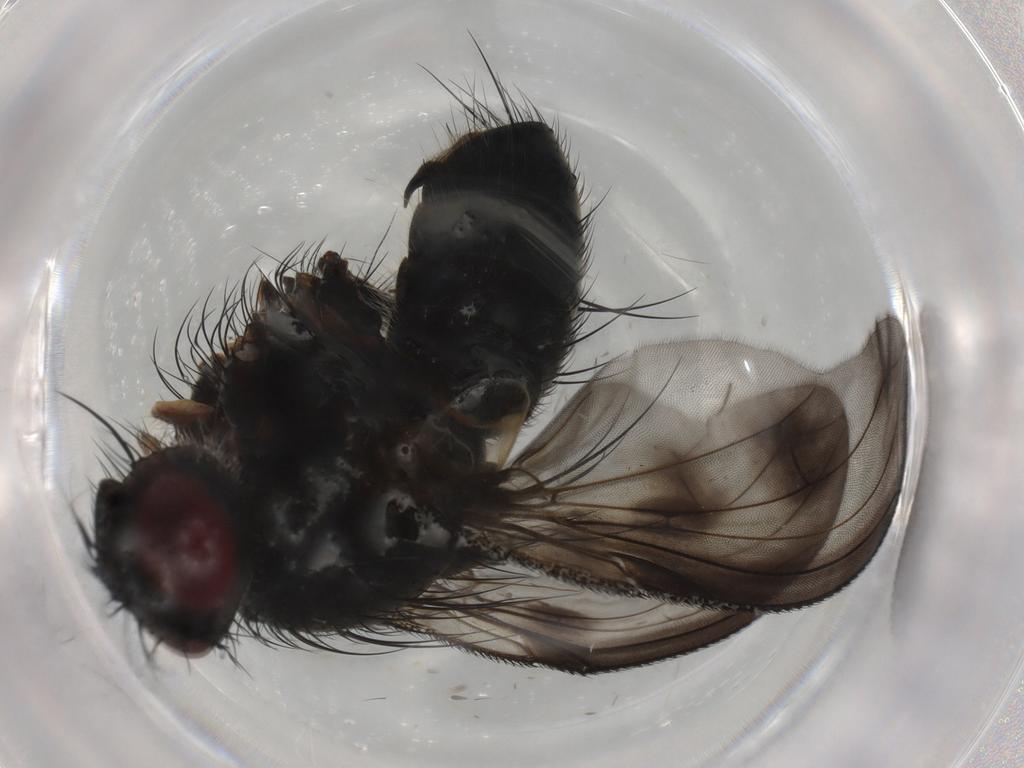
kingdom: Animalia
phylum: Arthropoda
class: Insecta
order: Diptera
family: Tachinidae
